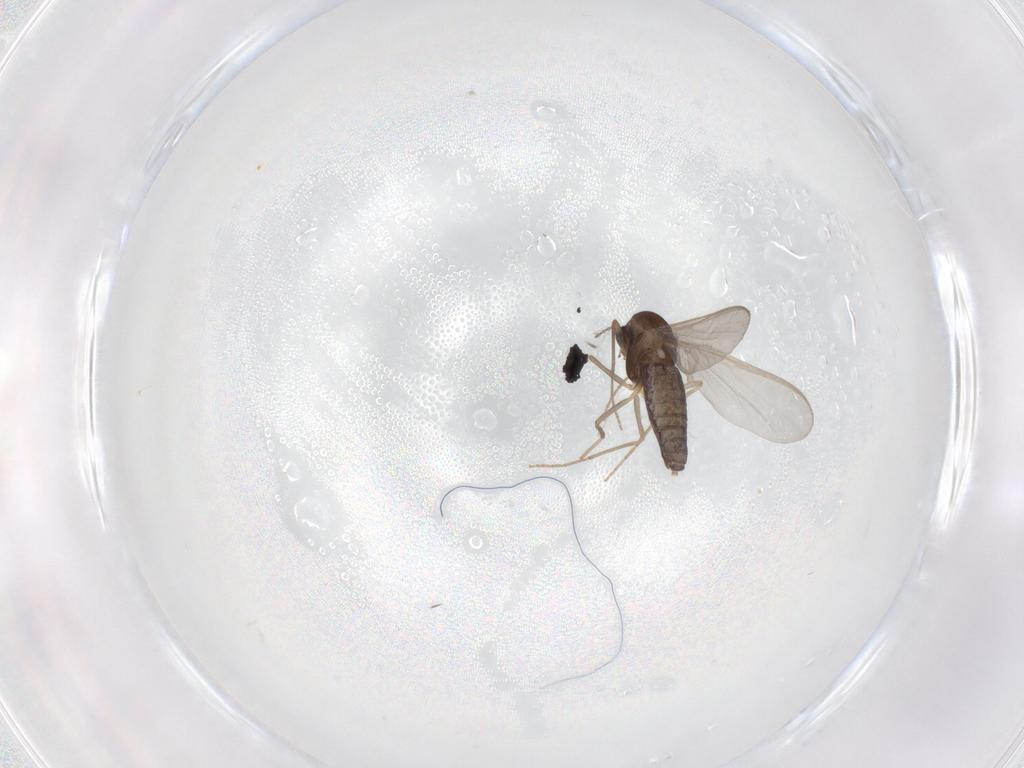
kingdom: Animalia
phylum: Arthropoda
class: Insecta
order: Diptera
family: Chironomidae
